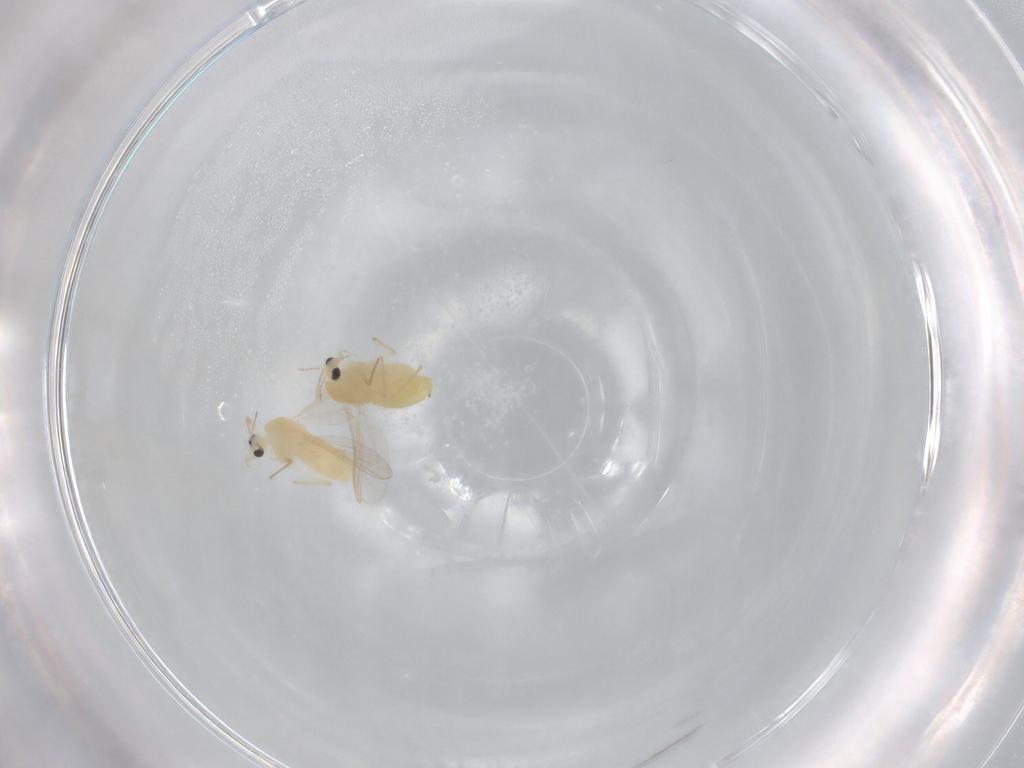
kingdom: Animalia
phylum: Arthropoda
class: Insecta
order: Diptera
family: Chironomidae
